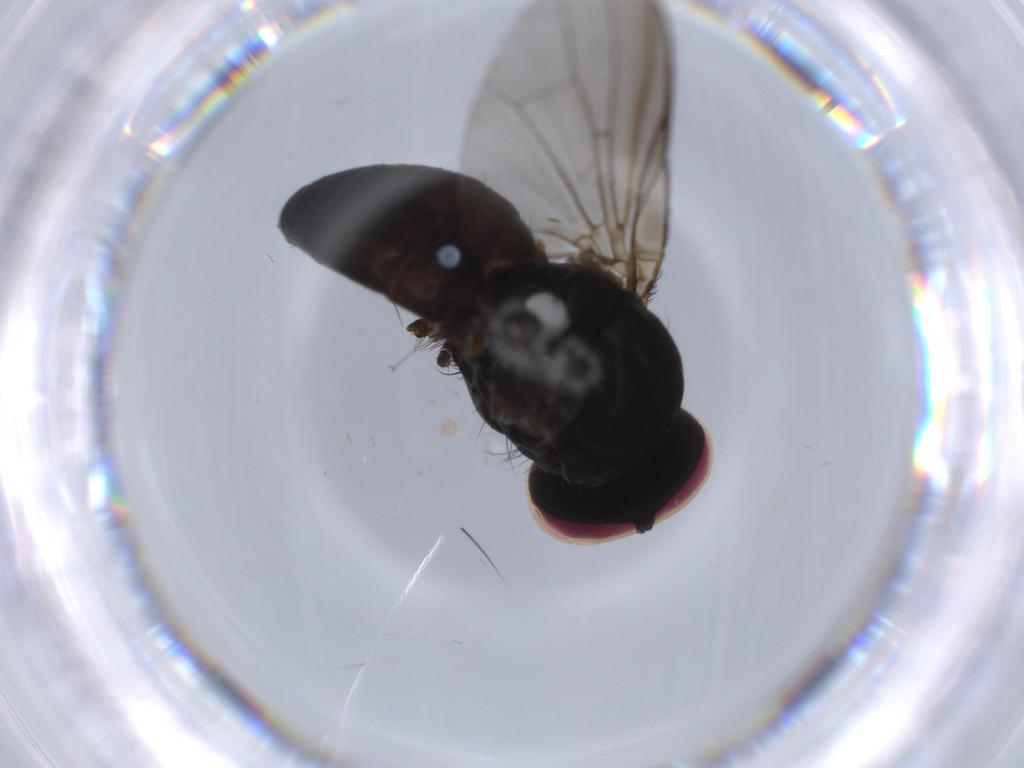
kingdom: Animalia
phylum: Arthropoda
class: Insecta
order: Diptera
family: Lonchaeidae
